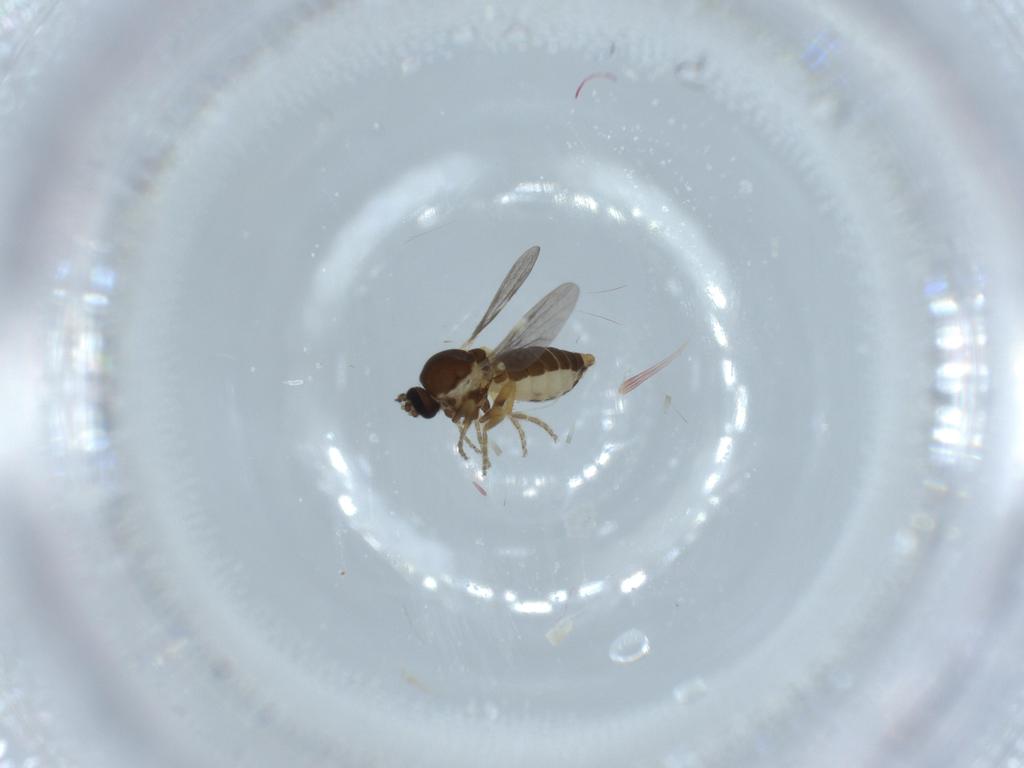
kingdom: Animalia
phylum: Arthropoda
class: Insecta
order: Diptera
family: Ceratopogonidae
